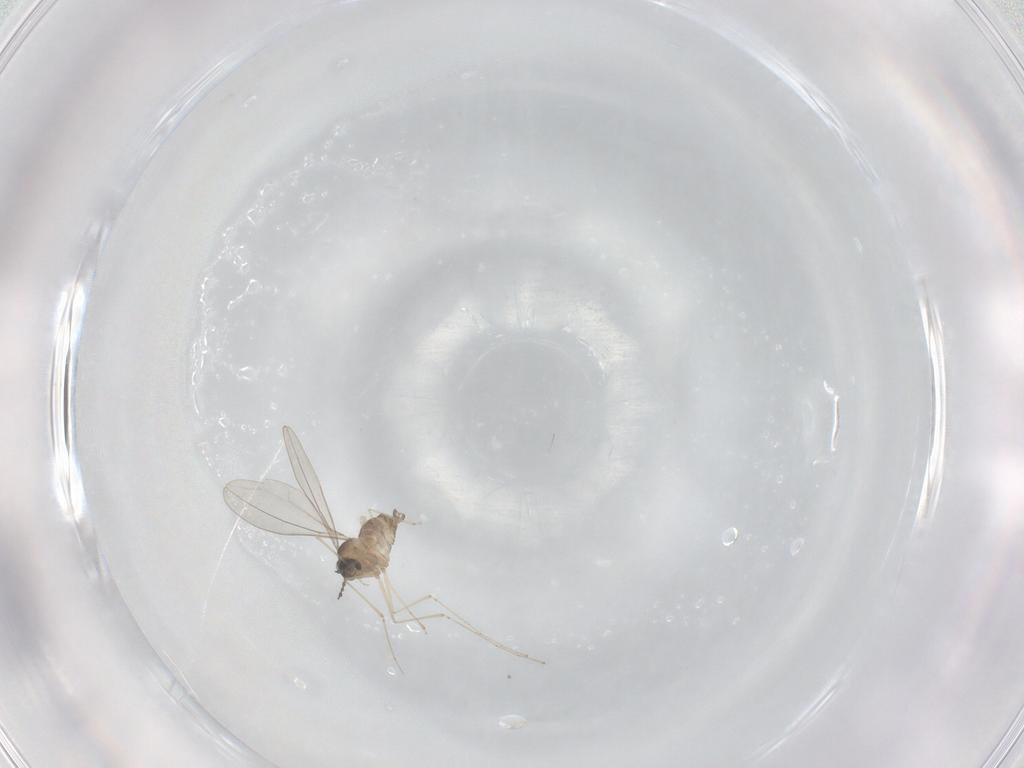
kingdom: Animalia
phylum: Arthropoda
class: Insecta
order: Diptera
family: Cecidomyiidae
